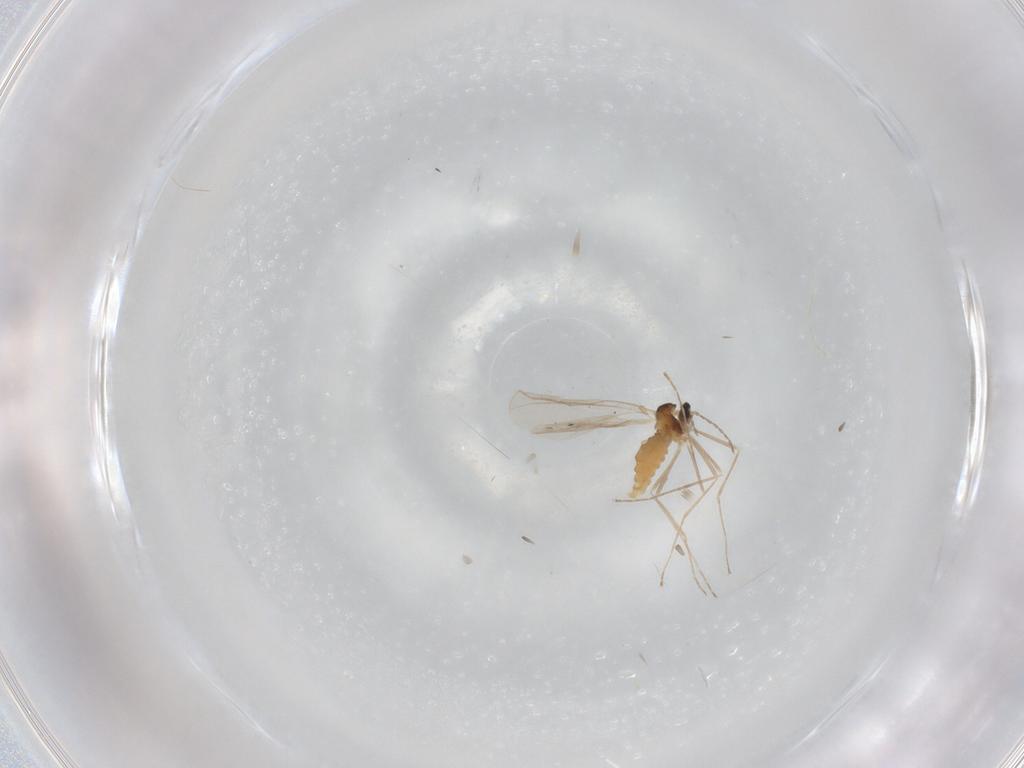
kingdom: Animalia
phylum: Arthropoda
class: Insecta
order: Diptera
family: Cecidomyiidae
